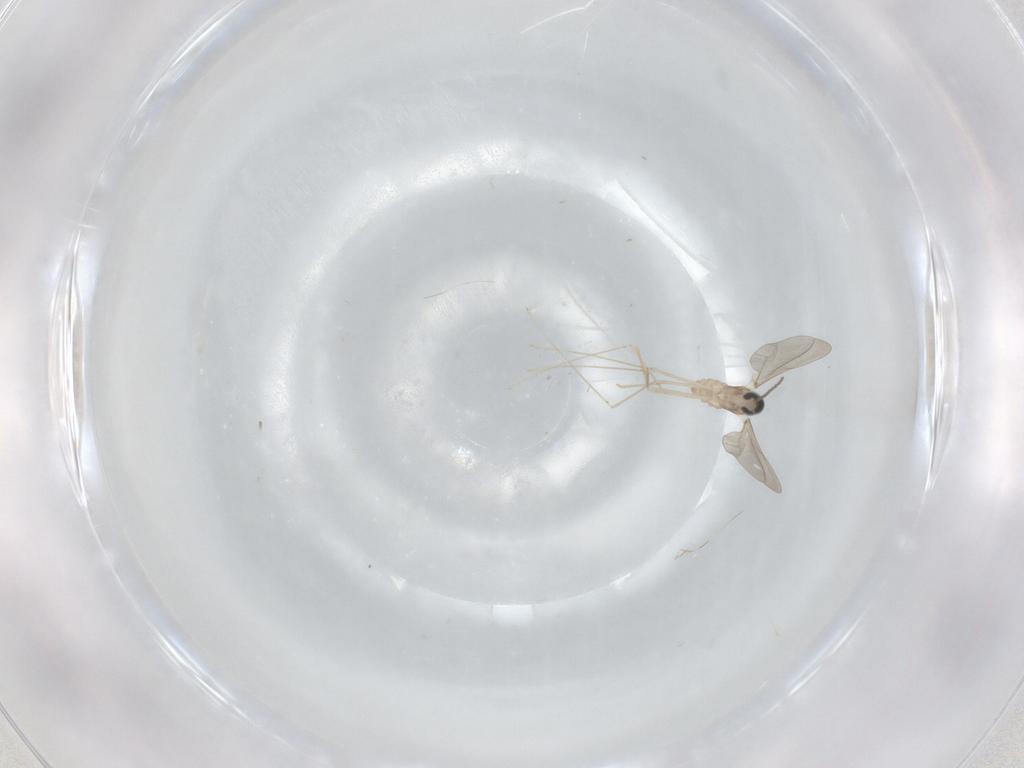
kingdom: Animalia
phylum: Arthropoda
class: Insecta
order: Diptera
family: Cecidomyiidae
